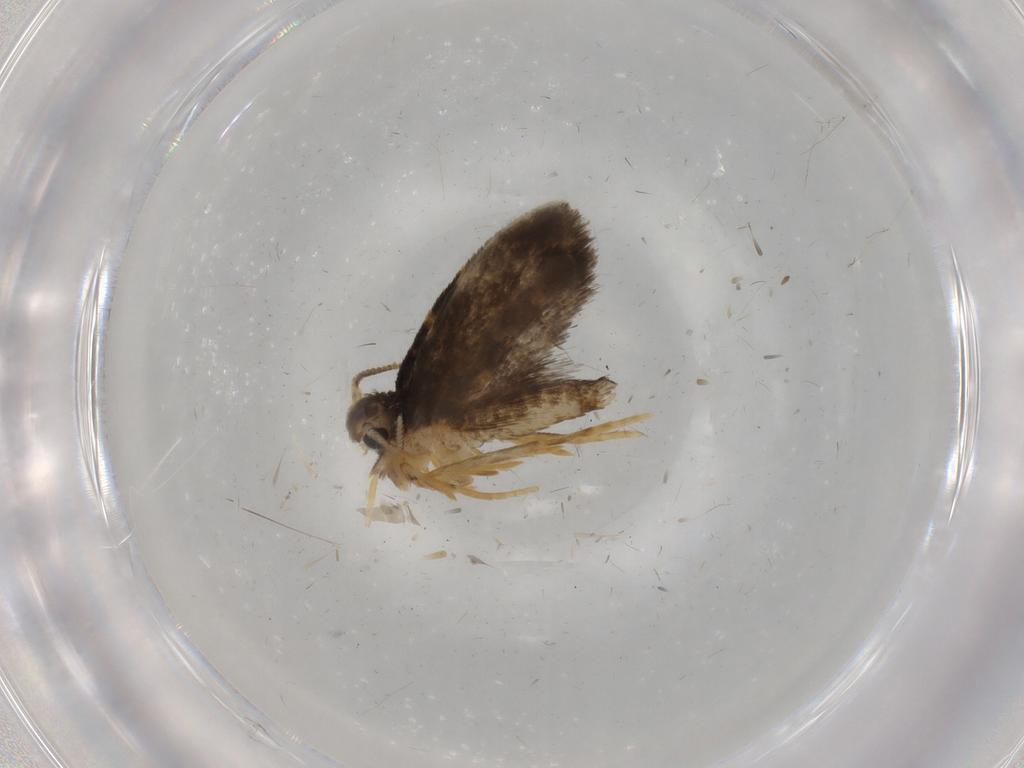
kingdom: Animalia
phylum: Arthropoda
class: Insecta
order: Lepidoptera
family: Psychidae
